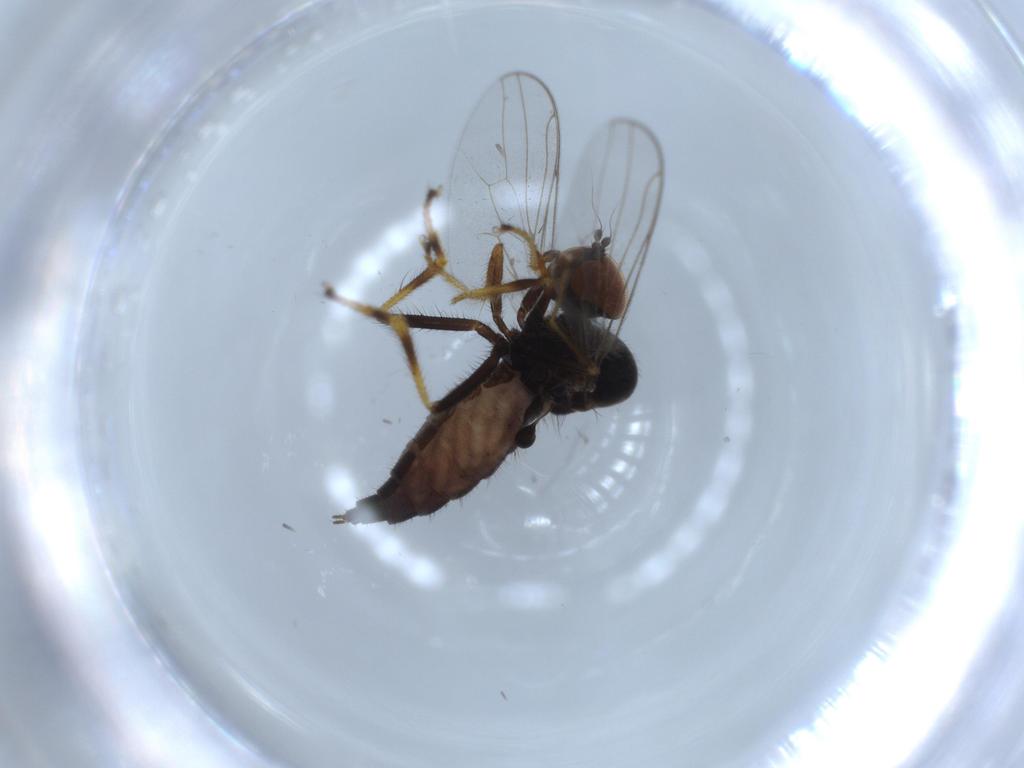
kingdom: Animalia
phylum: Arthropoda
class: Insecta
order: Diptera
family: Hybotidae
